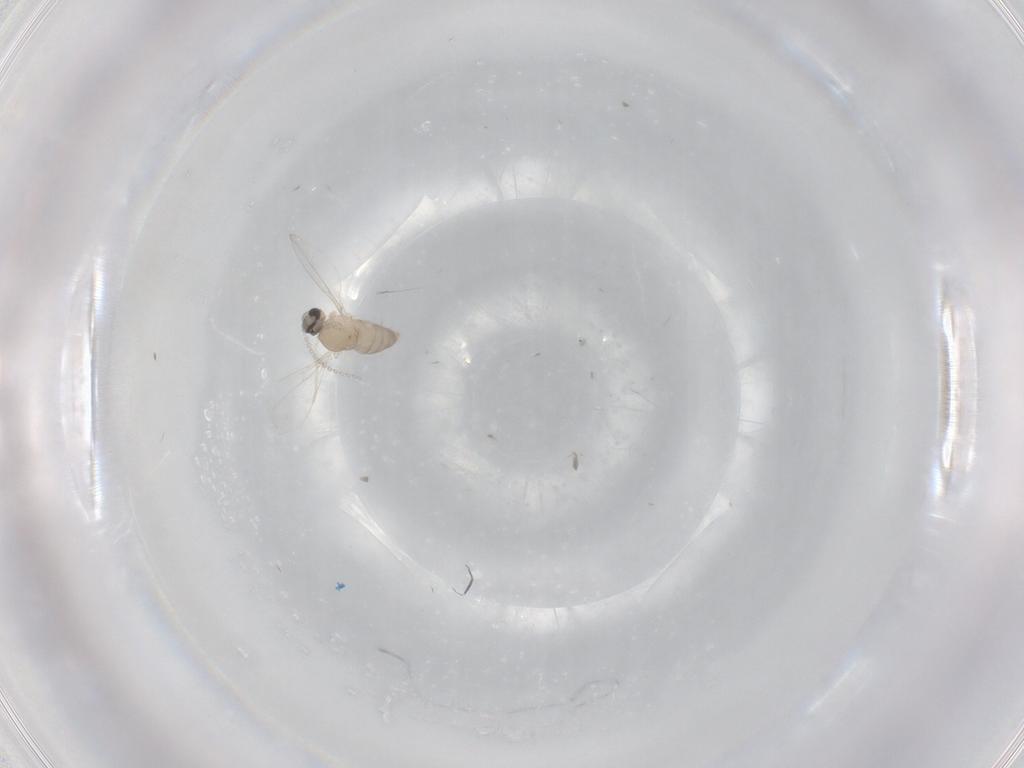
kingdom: Animalia
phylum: Arthropoda
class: Insecta
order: Diptera
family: Cecidomyiidae
